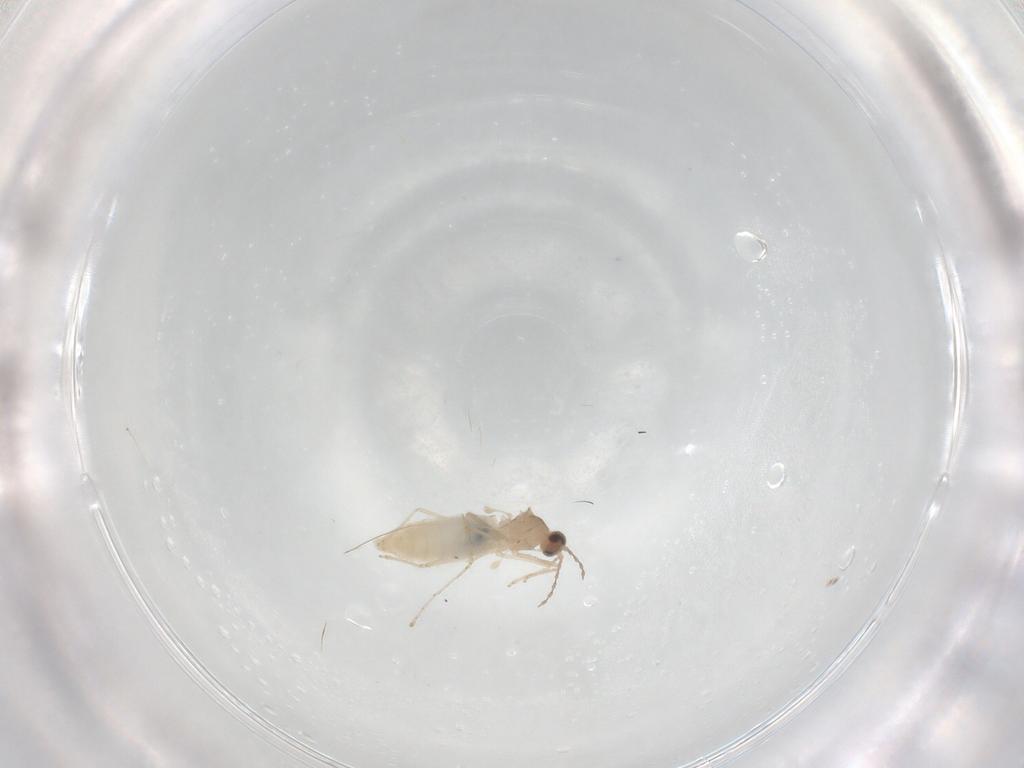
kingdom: Animalia
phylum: Arthropoda
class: Insecta
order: Diptera
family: Cecidomyiidae
